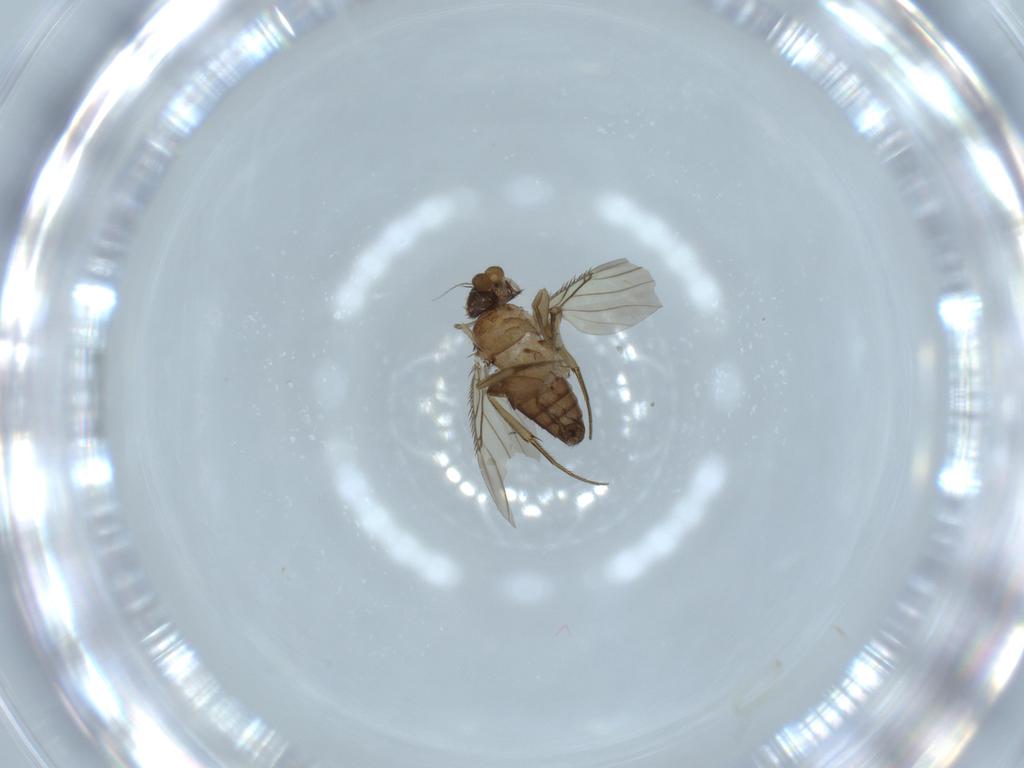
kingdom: Animalia
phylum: Arthropoda
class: Insecta
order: Diptera
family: Phoridae
